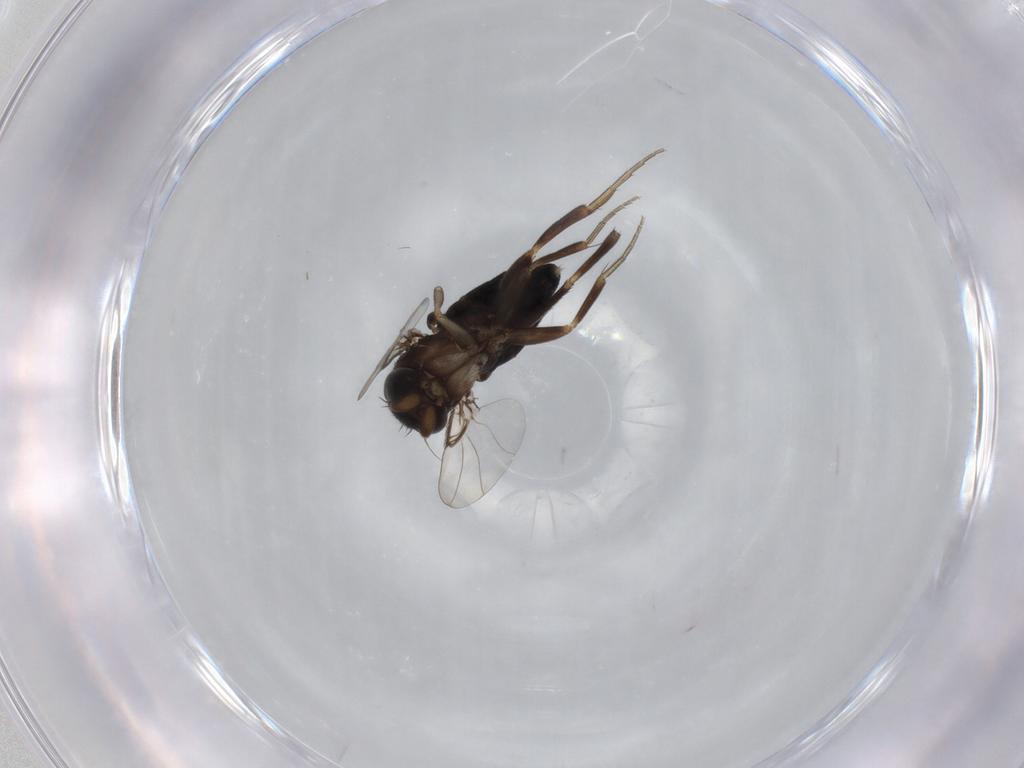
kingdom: Animalia
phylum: Arthropoda
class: Insecta
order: Diptera
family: Phoridae
